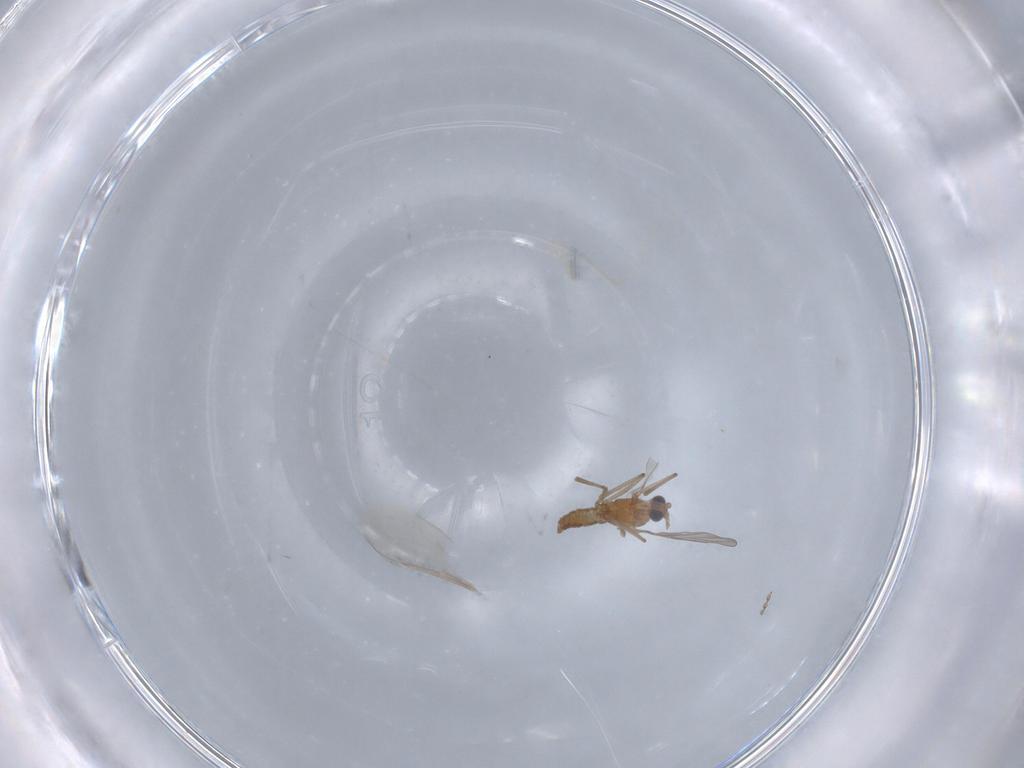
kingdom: Animalia
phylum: Arthropoda
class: Insecta
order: Diptera
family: Cecidomyiidae
